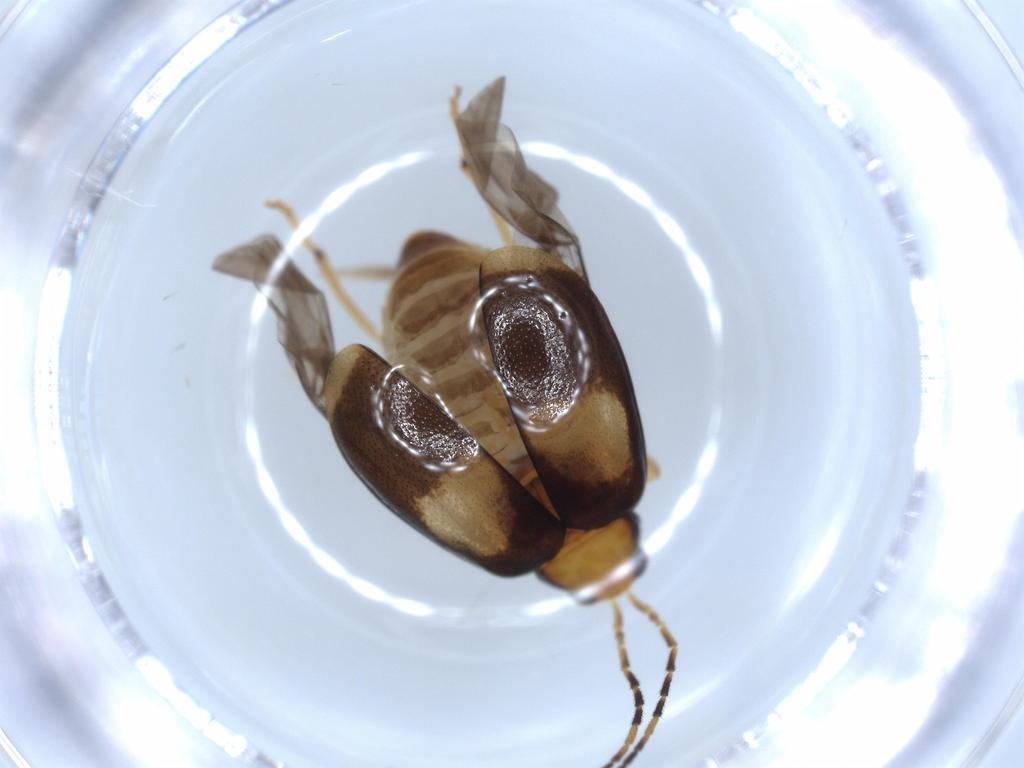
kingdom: Animalia
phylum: Arthropoda
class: Insecta
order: Coleoptera
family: Chrysomelidae
